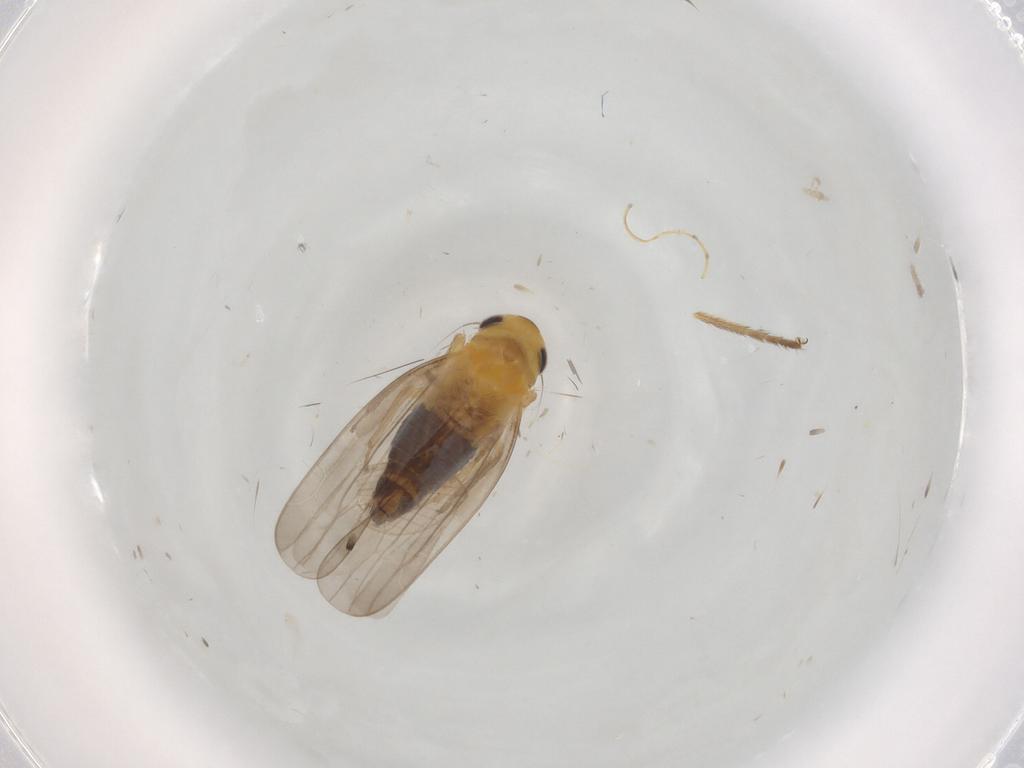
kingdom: Animalia
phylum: Arthropoda
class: Insecta
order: Hemiptera
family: Cicadellidae
